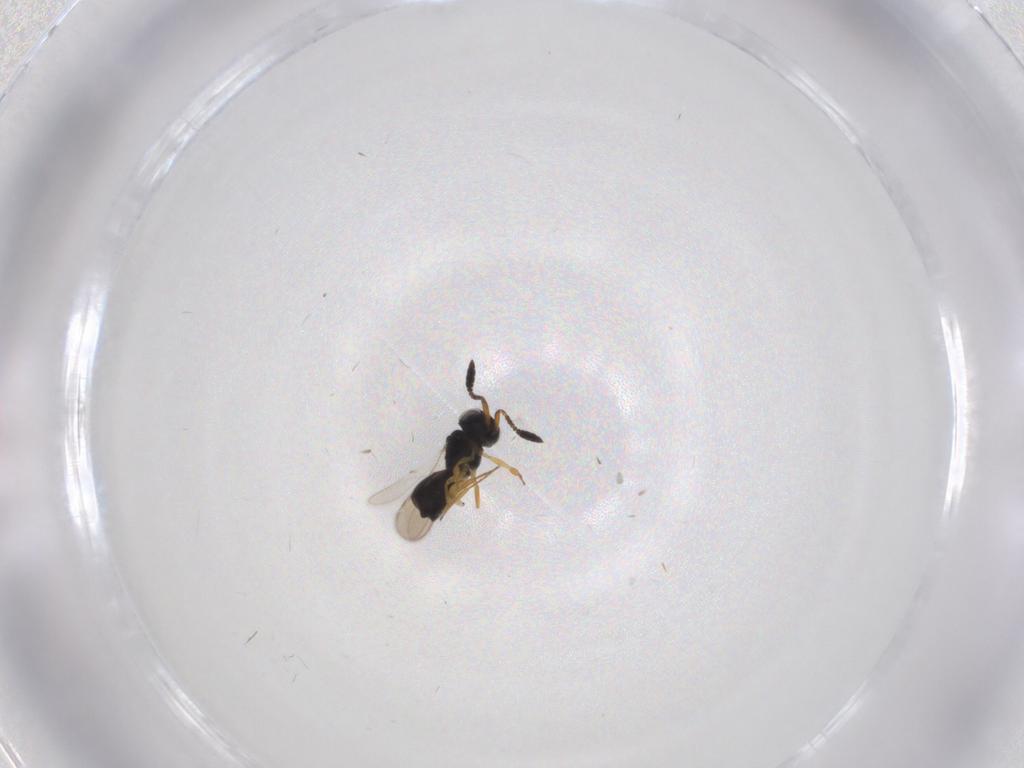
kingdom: Animalia
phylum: Arthropoda
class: Insecta
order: Hymenoptera
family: Scelionidae
